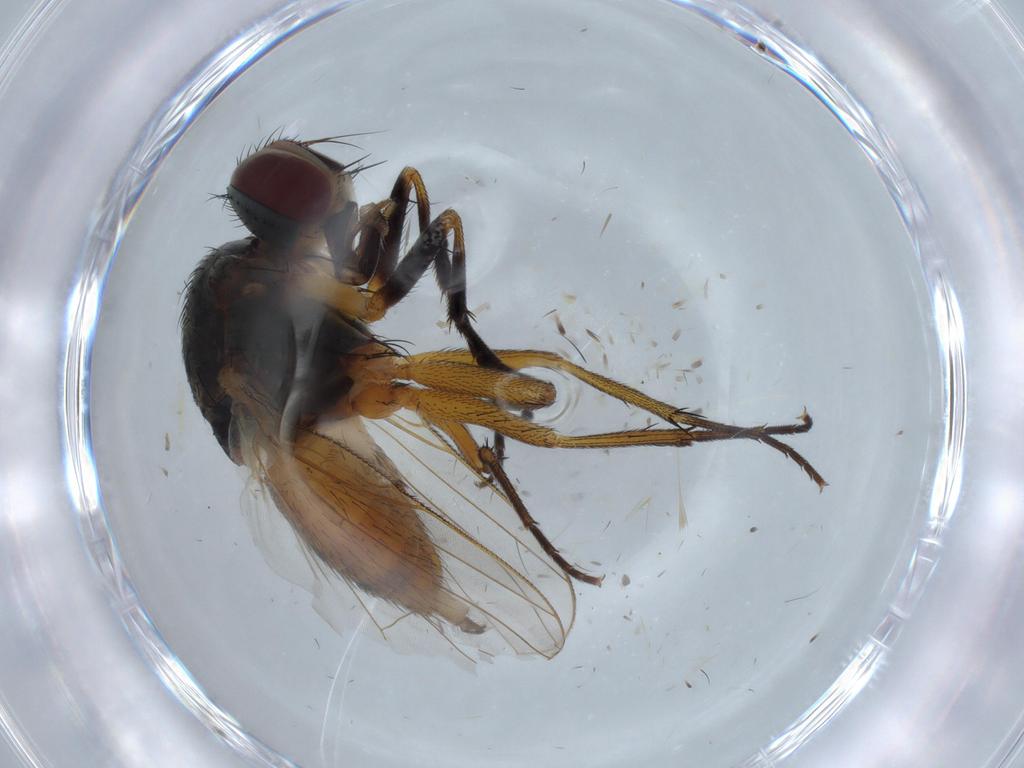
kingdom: Animalia
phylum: Arthropoda
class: Insecta
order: Diptera
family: Muscidae
